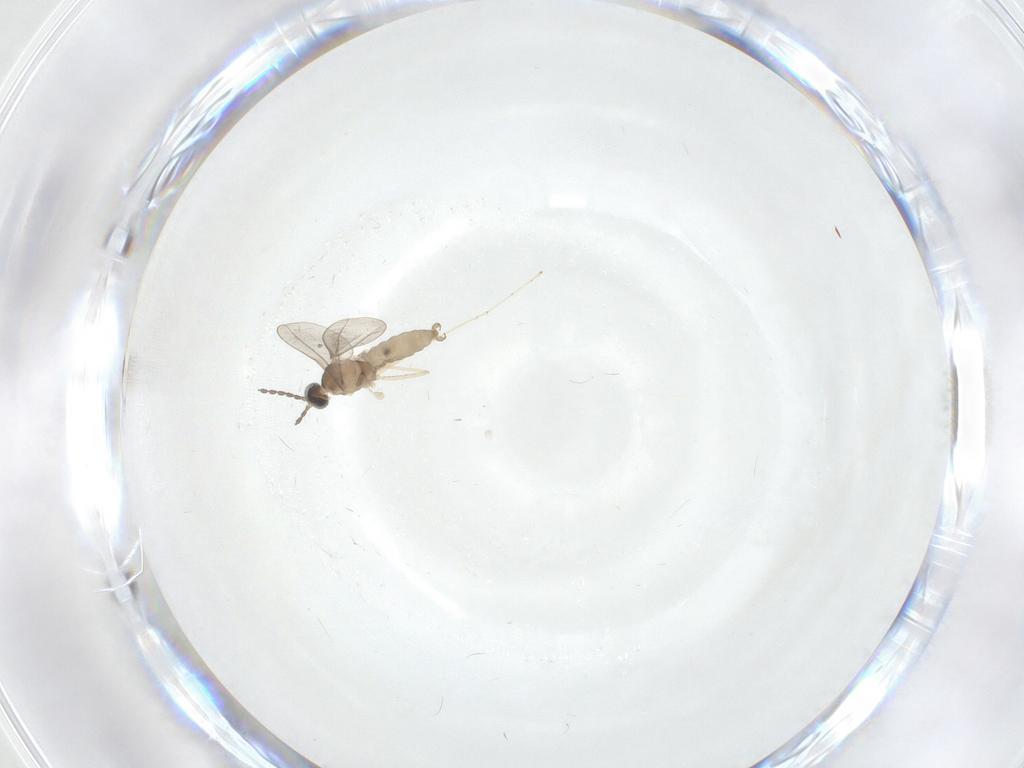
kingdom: Animalia
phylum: Arthropoda
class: Insecta
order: Diptera
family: Phoridae
